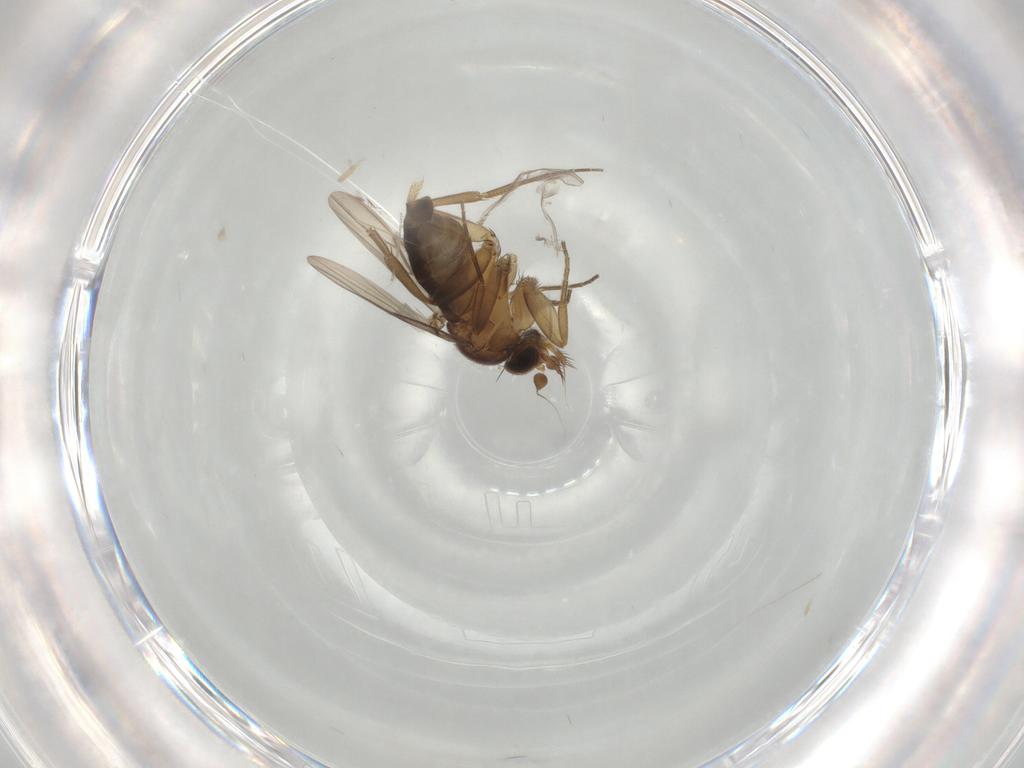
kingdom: Animalia
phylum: Arthropoda
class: Insecta
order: Diptera
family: Phoridae
